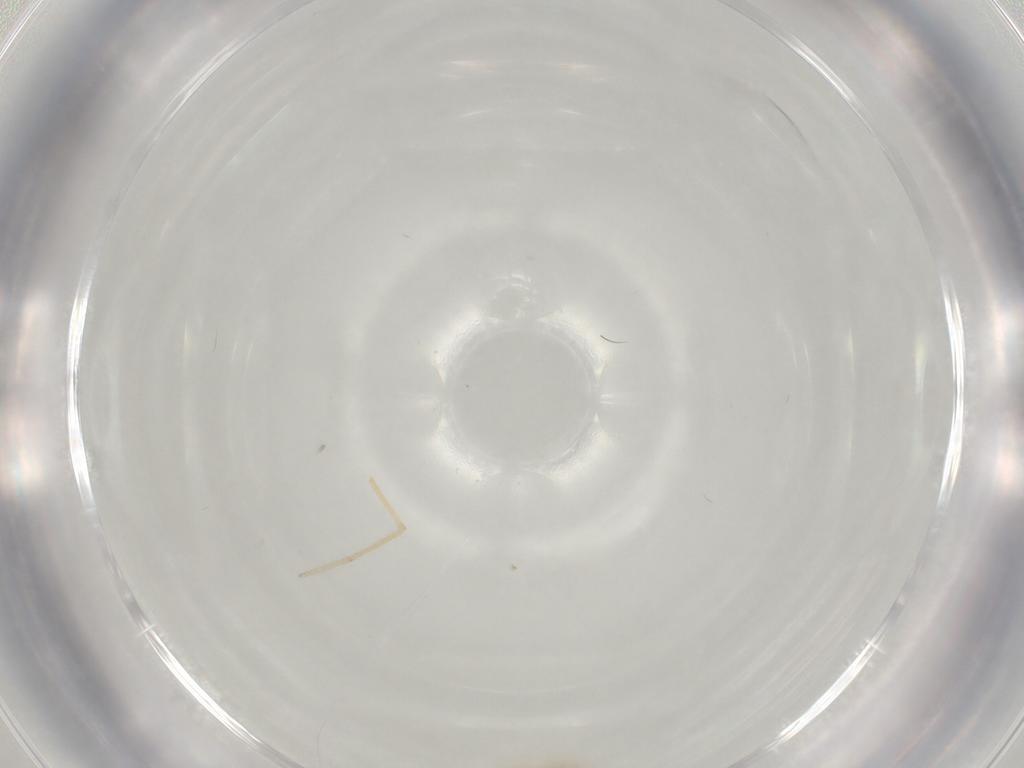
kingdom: Animalia
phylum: Arthropoda
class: Arachnida
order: Araneae
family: Pholcidae
